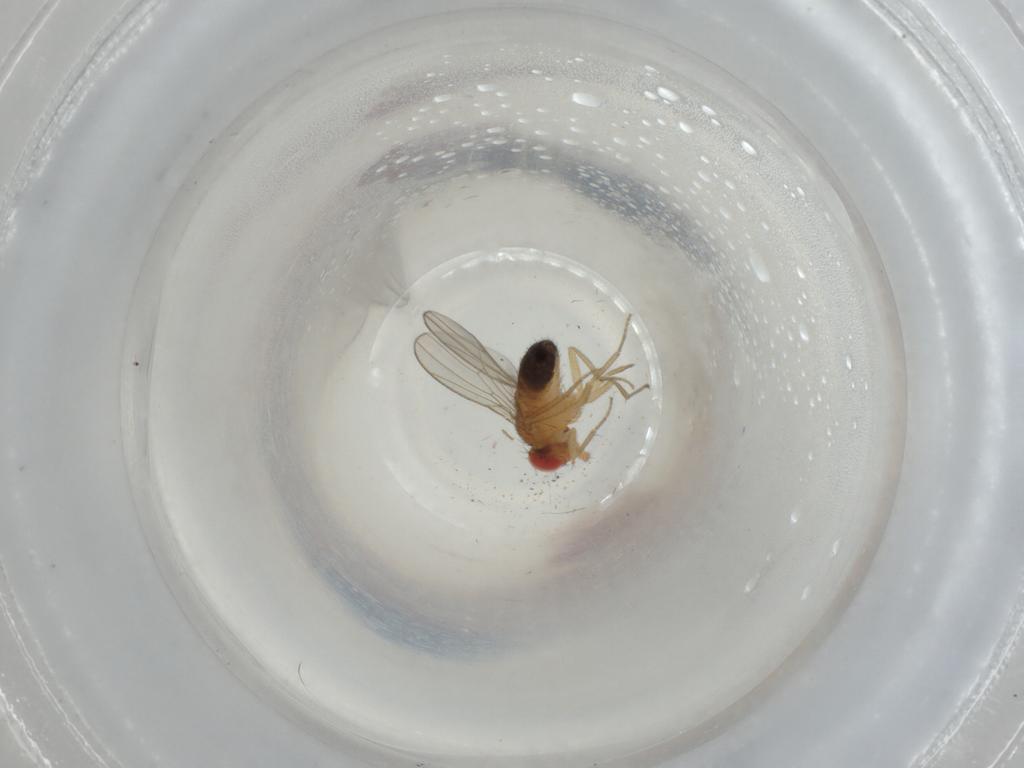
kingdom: Animalia
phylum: Arthropoda
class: Insecta
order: Diptera
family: Drosophilidae
